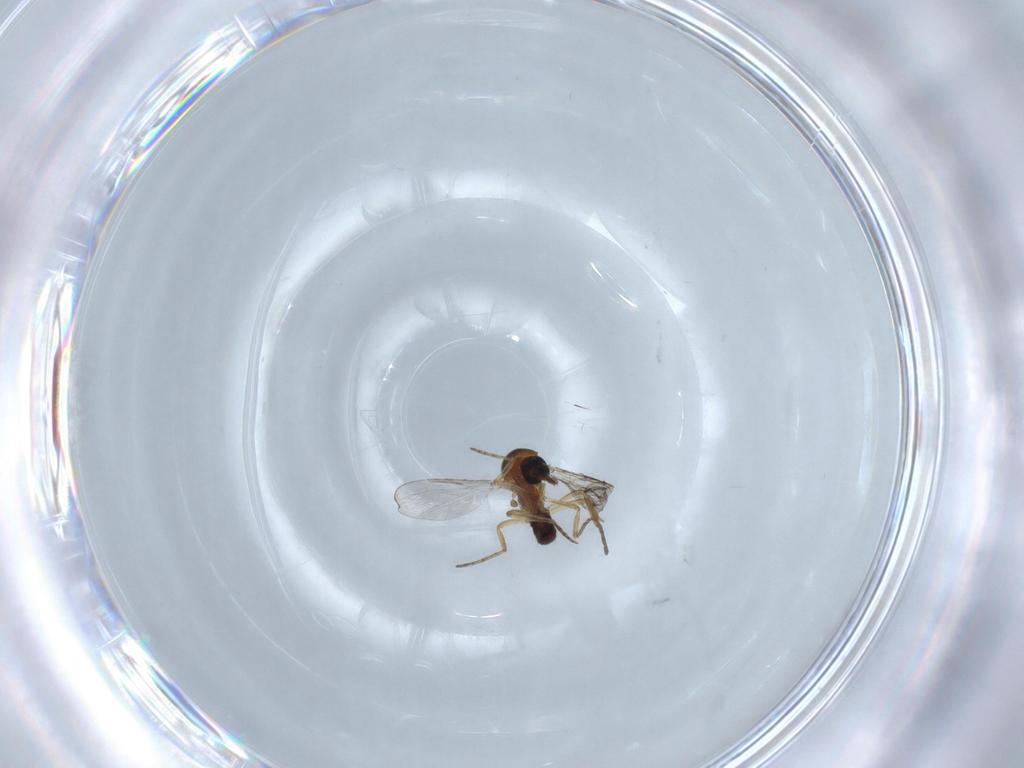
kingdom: Animalia
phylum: Arthropoda
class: Insecta
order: Diptera
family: Ceratopogonidae
